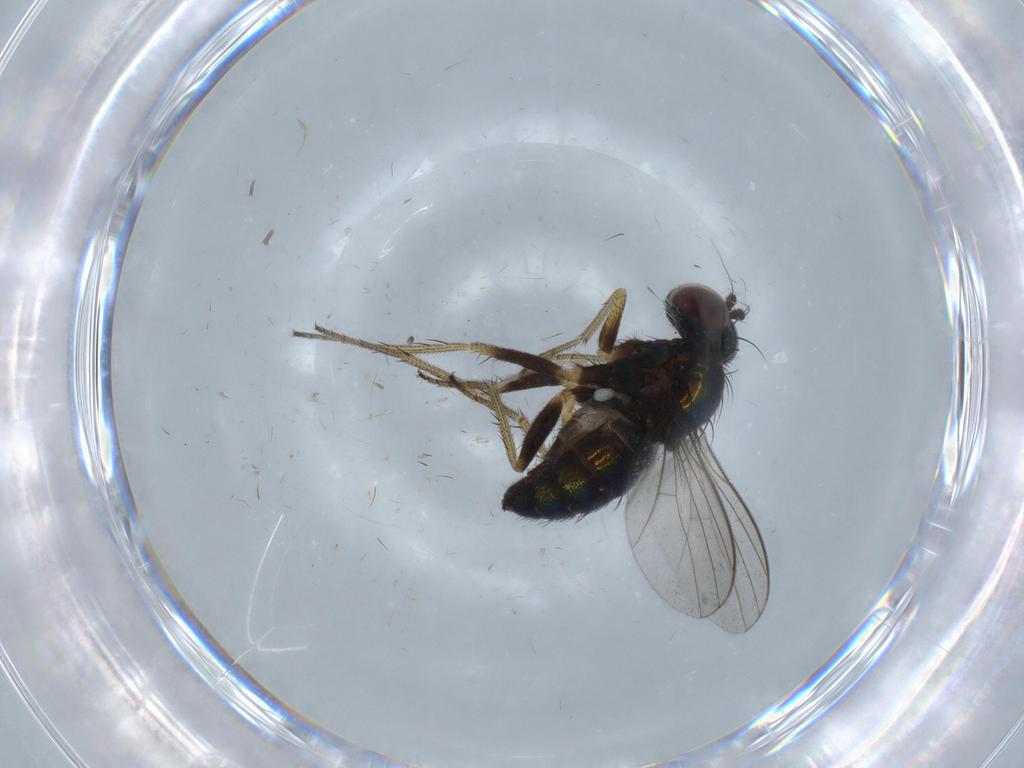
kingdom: Animalia
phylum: Arthropoda
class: Insecta
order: Diptera
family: Dolichopodidae
